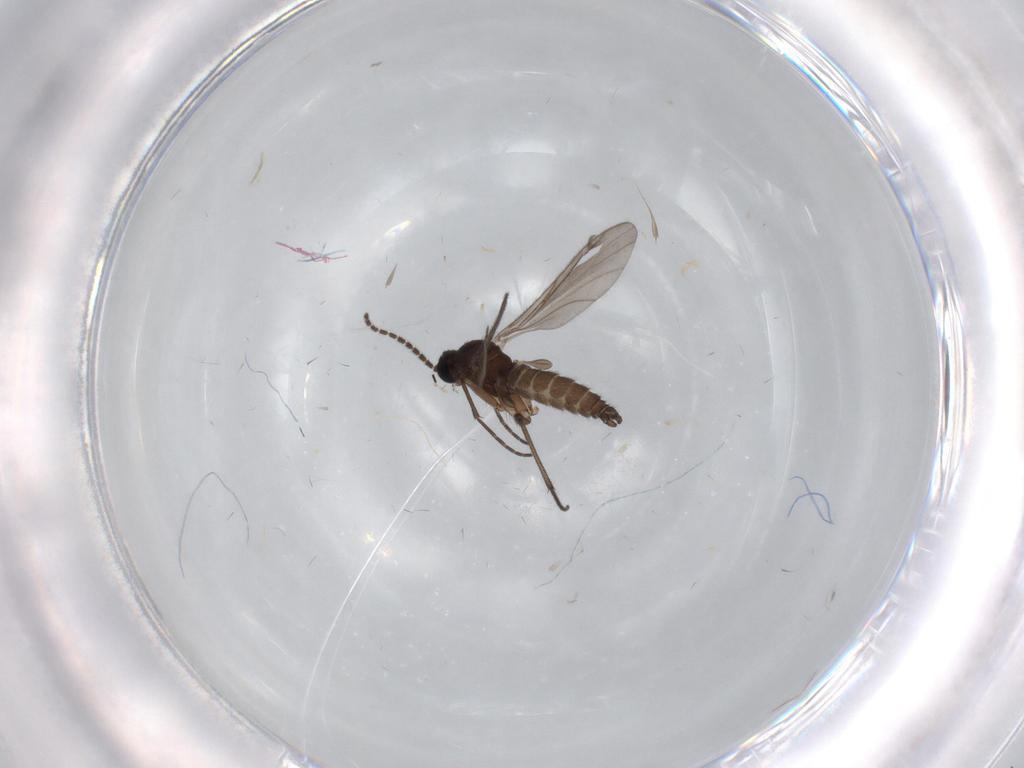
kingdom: Animalia
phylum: Arthropoda
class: Insecta
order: Diptera
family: Sciaridae
